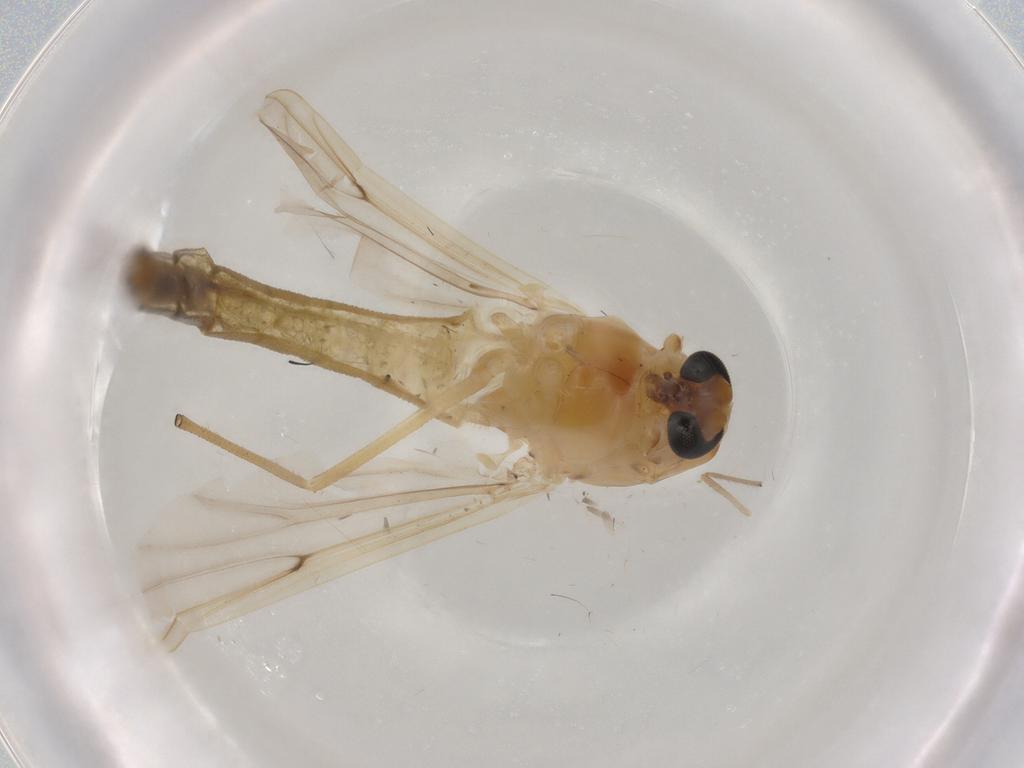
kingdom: Animalia
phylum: Arthropoda
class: Insecta
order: Diptera
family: Chironomidae
